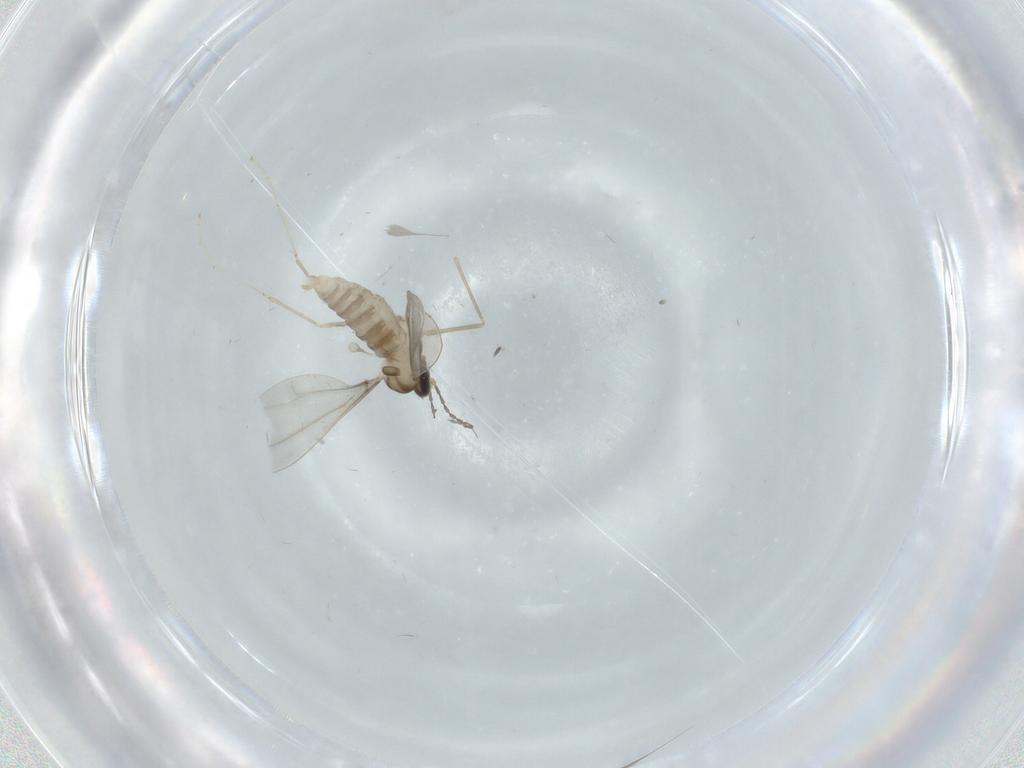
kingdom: Animalia
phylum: Arthropoda
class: Insecta
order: Diptera
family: Cecidomyiidae
